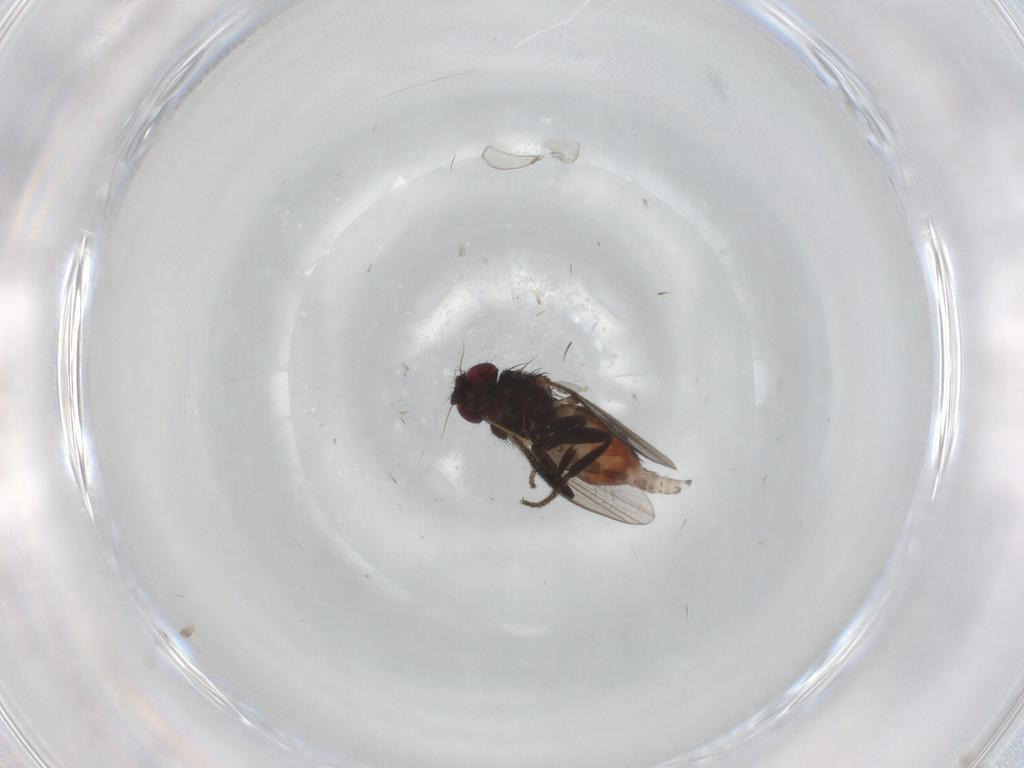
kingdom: Animalia
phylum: Arthropoda
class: Insecta
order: Diptera
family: Milichiidae
